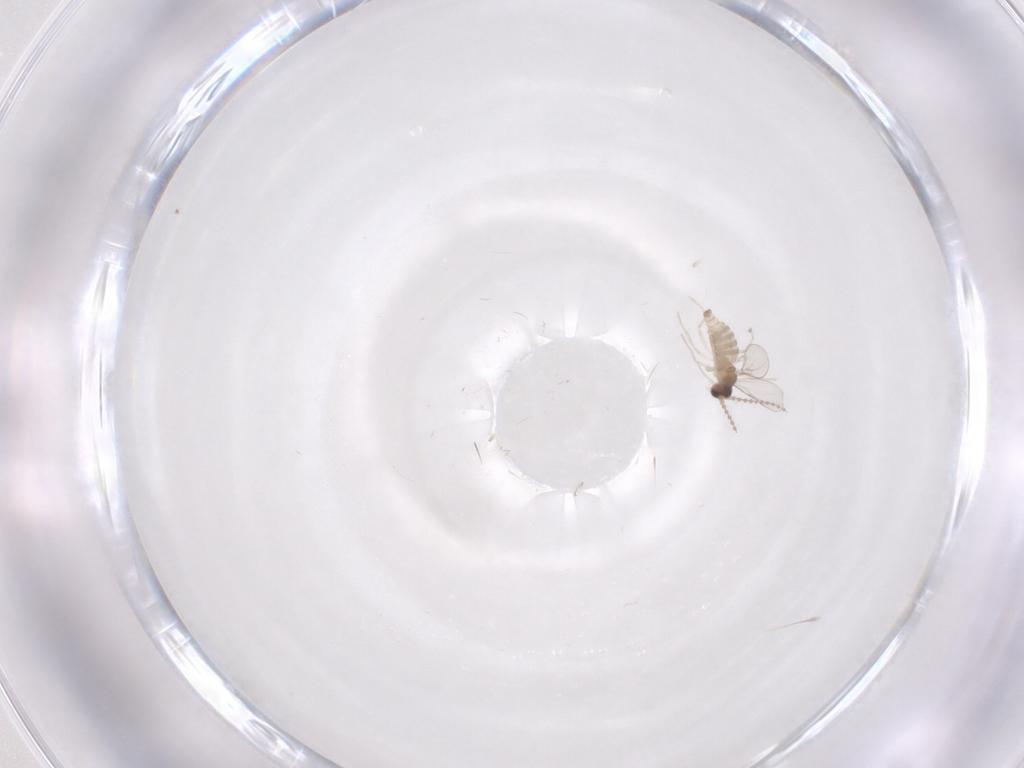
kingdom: Animalia
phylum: Arthropoda
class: Insecta
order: Diptera
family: Cecidomyiidae
